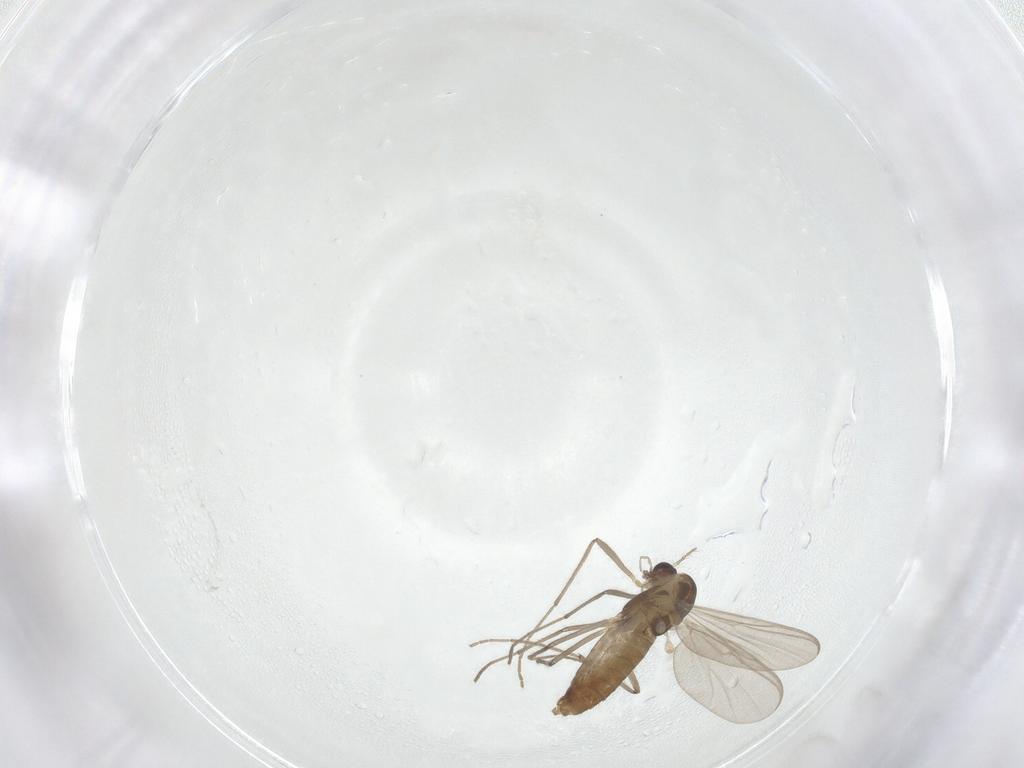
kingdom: Animalia
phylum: Arthropoda
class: Insecta
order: Diptera
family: Chironomidae
